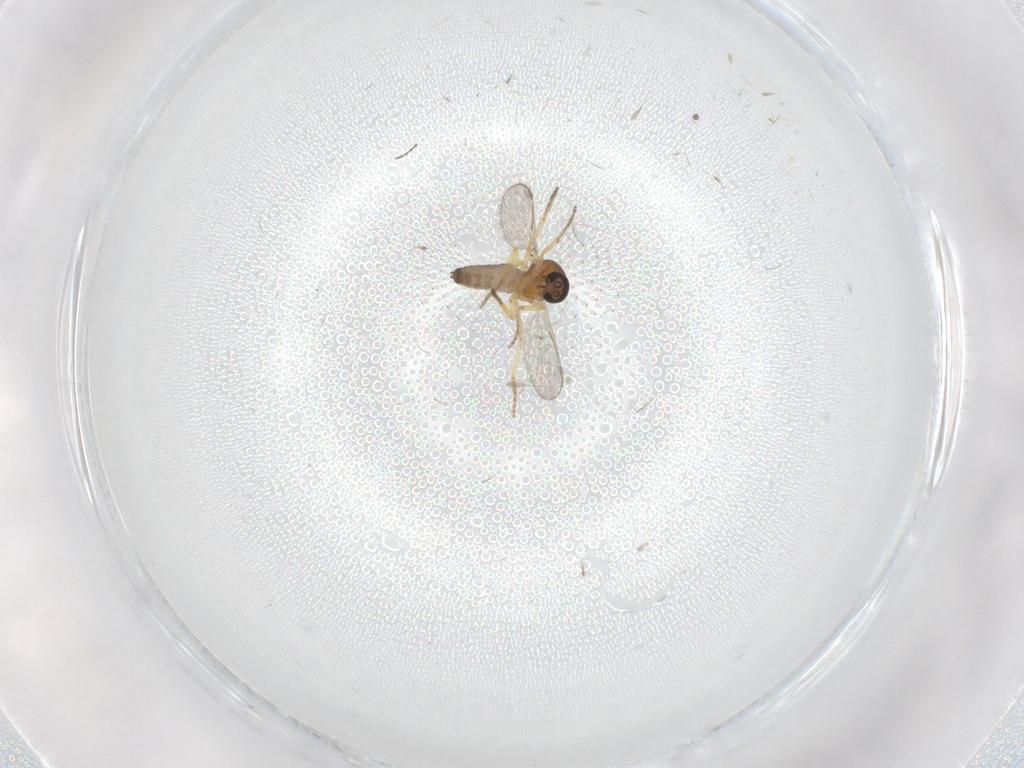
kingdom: Animalia
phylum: Arthropoda
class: Insecta
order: Diptera
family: Ceratopogonidae
